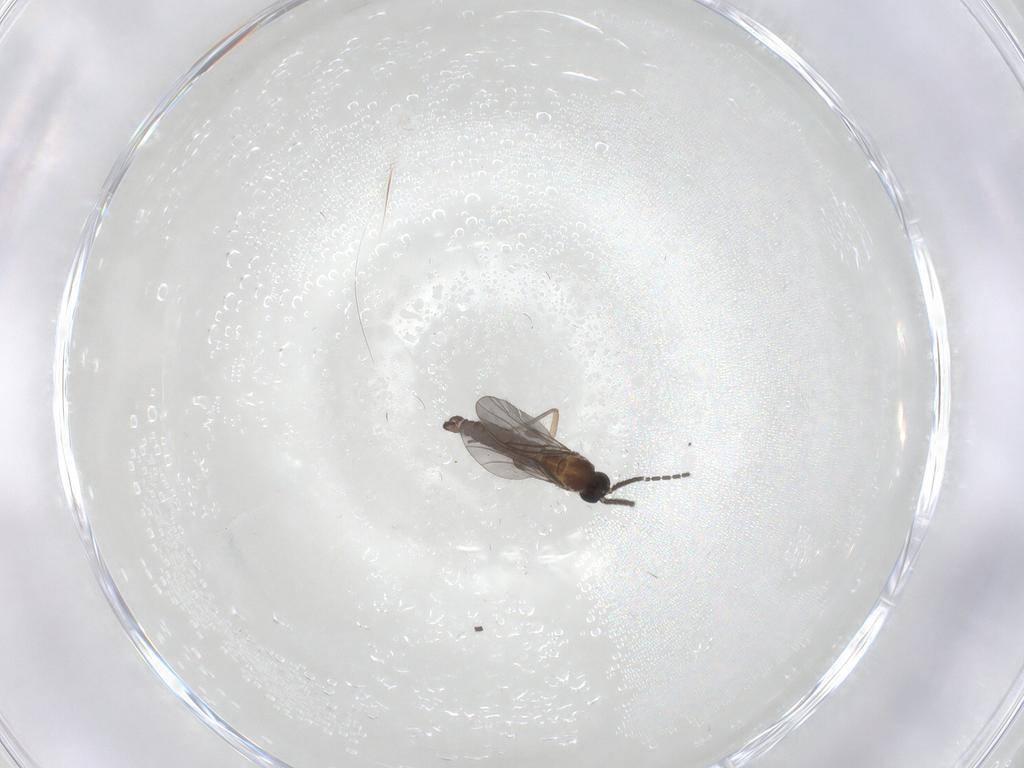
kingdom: Animalia
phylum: Arthropoda
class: Insecta
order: Diptera
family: Sciaridae
